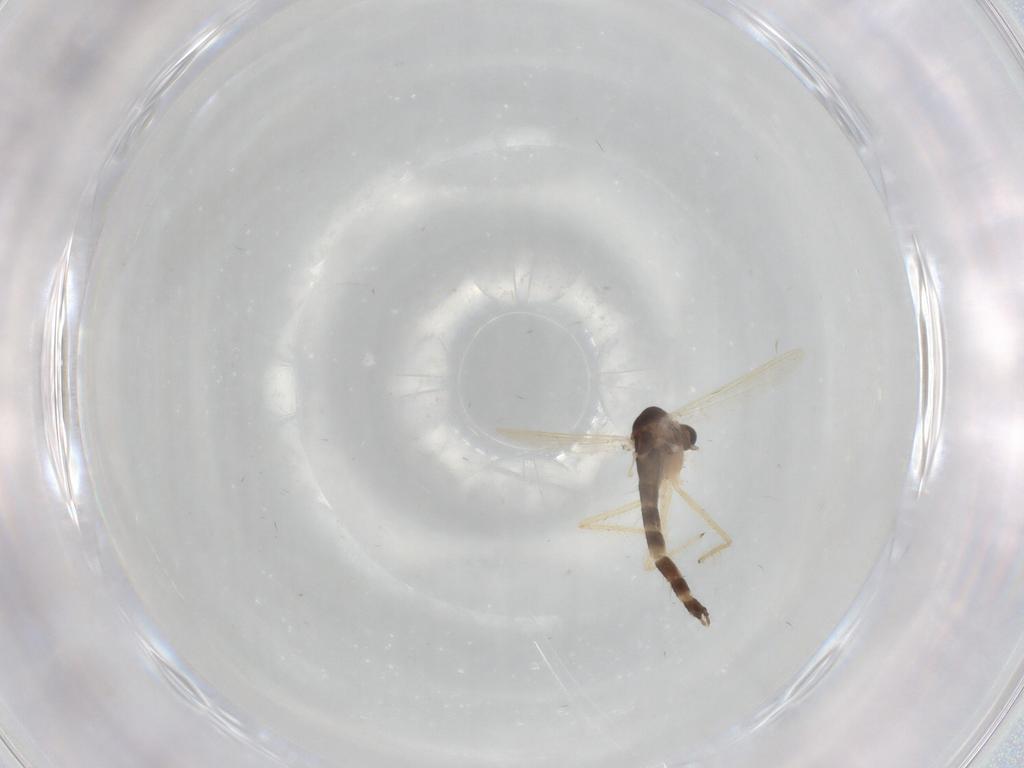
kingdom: Animalia
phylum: Arthropoda
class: Insecta
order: Diptera
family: Chironomidae
